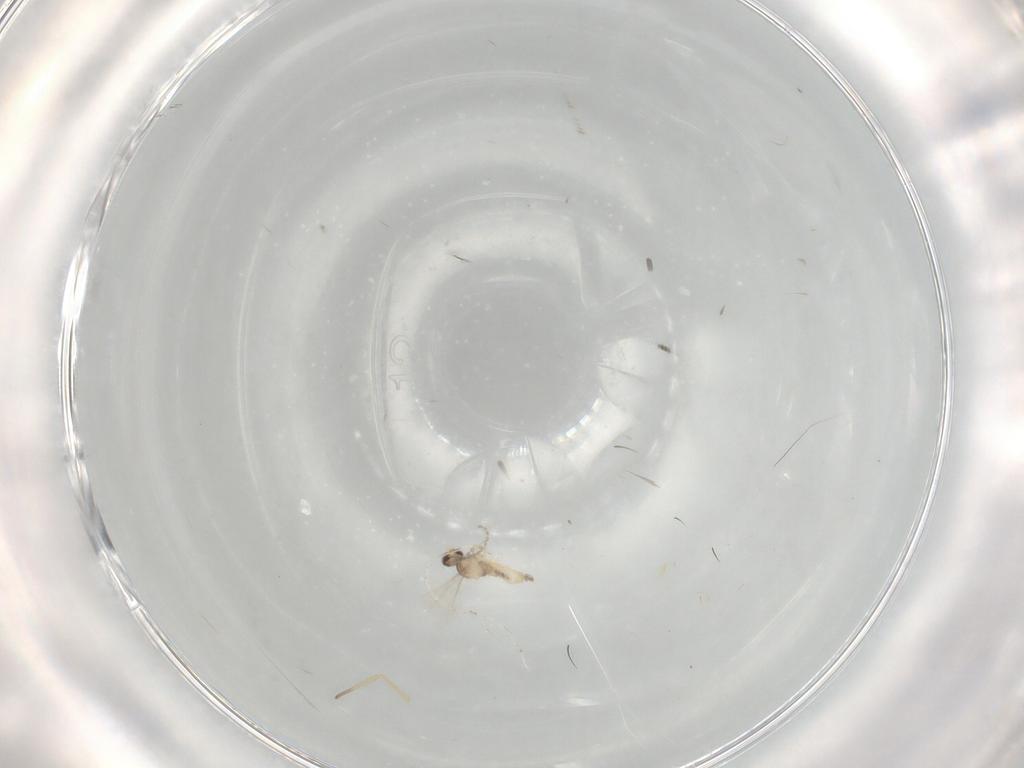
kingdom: Animalia
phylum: Arthropoda
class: Insecta
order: Diptera
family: Cecidomyiidae
